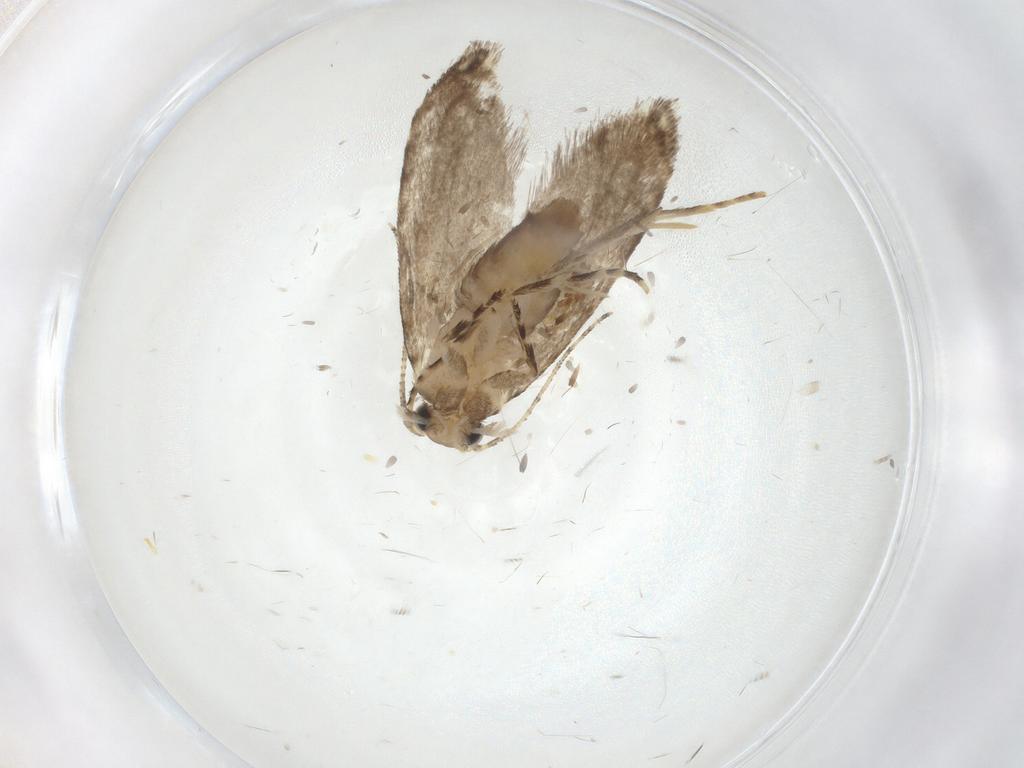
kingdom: Animalia
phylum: Arthropoda
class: Insecta
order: Lepidoptera
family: Tineidae
